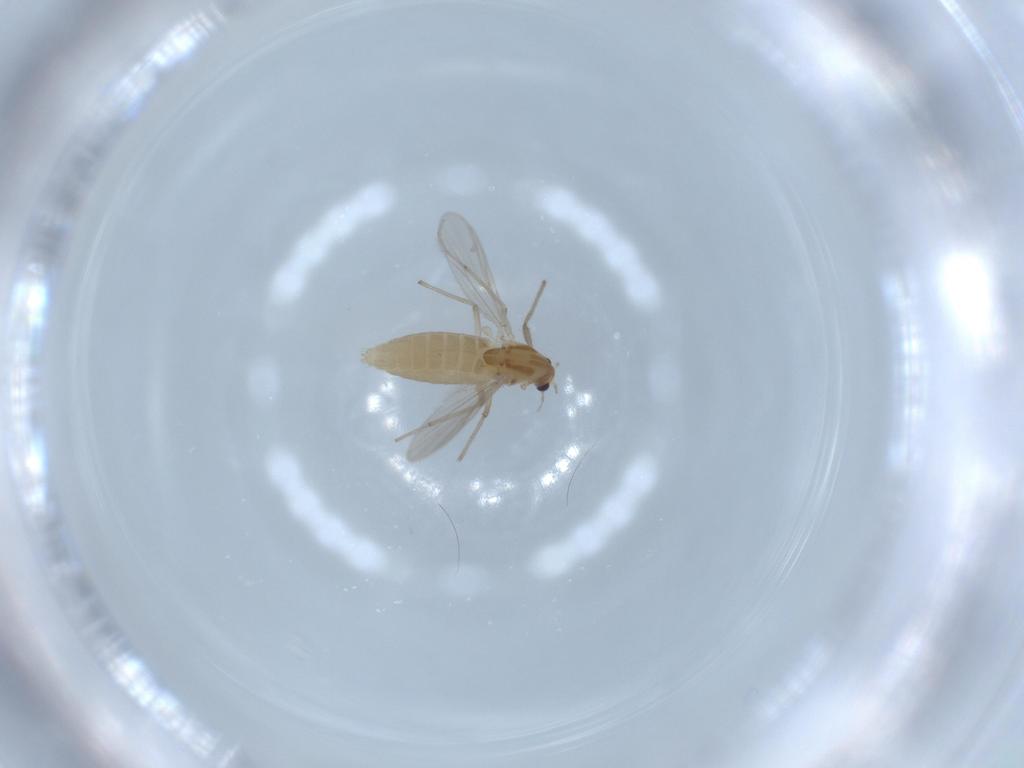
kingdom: Animalia
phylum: Arthropoda
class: Insecta
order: Diptera
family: Chironomidae
